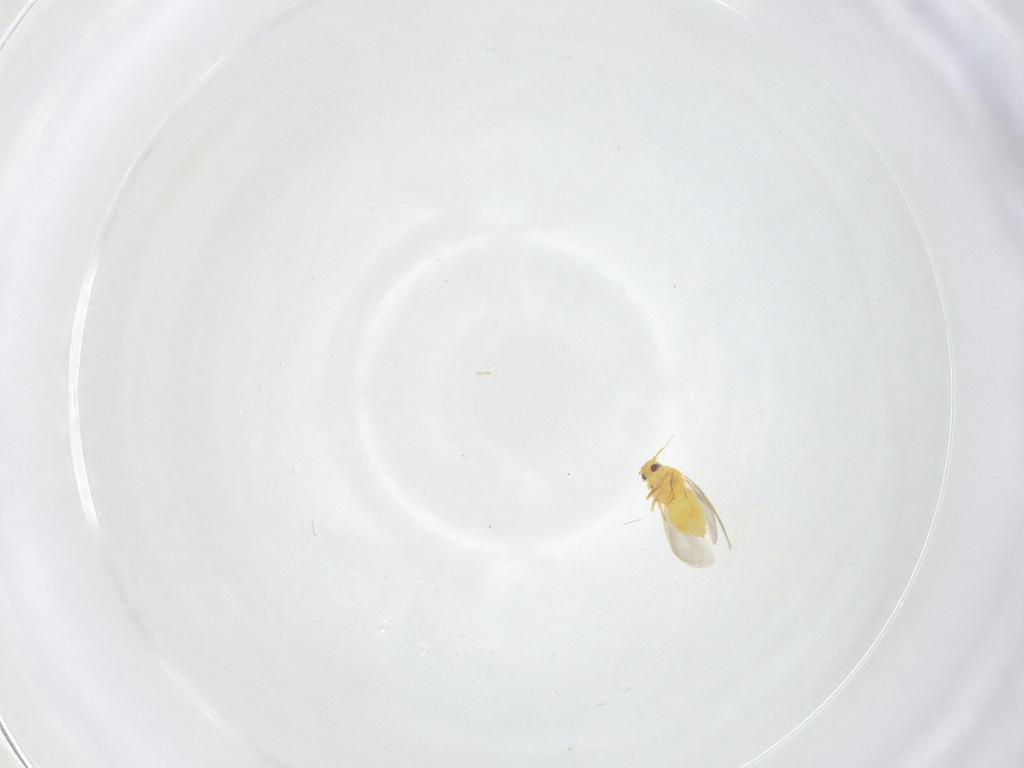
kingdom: Animalia
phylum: Arthropoda
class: Insecta
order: Hemiptera
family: Aleyrodidae
